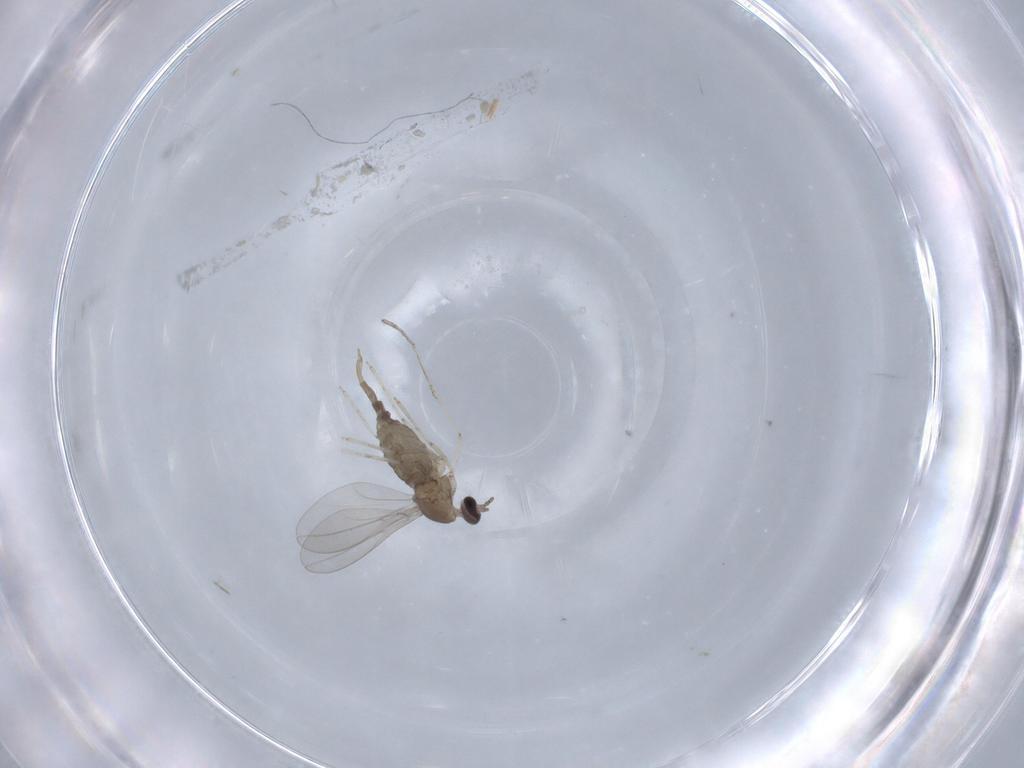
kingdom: Animalia
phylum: Arthropoda
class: Insecta
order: Diptera
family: Cecidomyiidae
